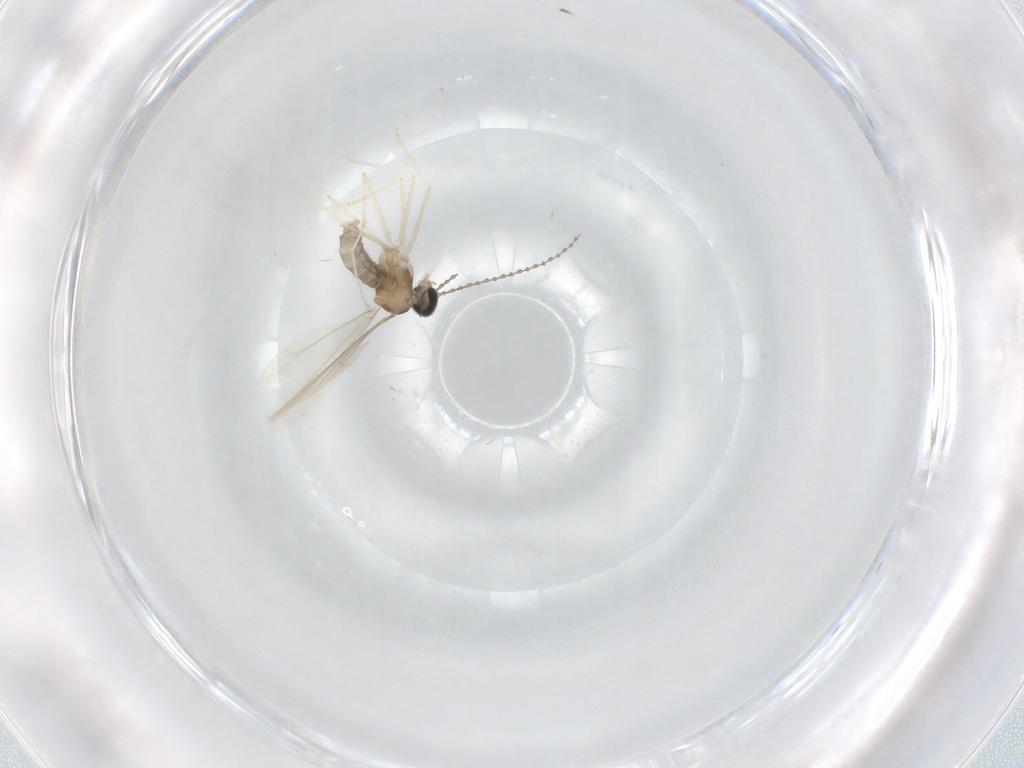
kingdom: Animalia
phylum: Arthropoda
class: Insecta
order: Diptera
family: Cecidomyiidae
